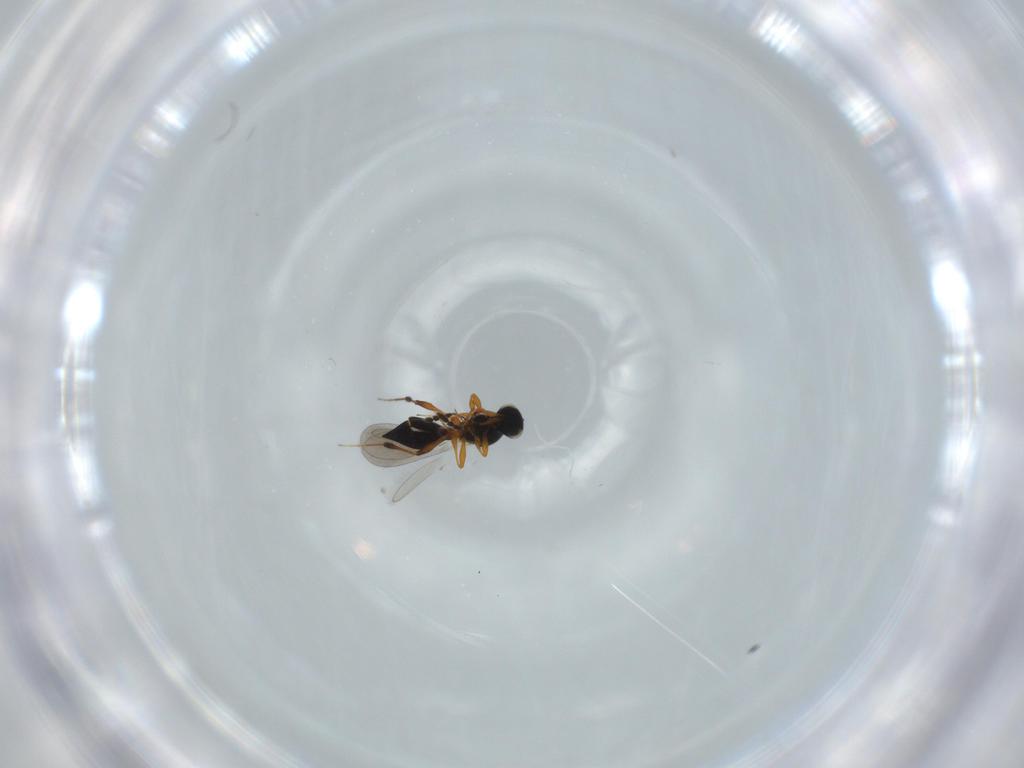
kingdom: Animalia
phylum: Arthropoda
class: Insecta
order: Hymenoptera
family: Platygastridae
